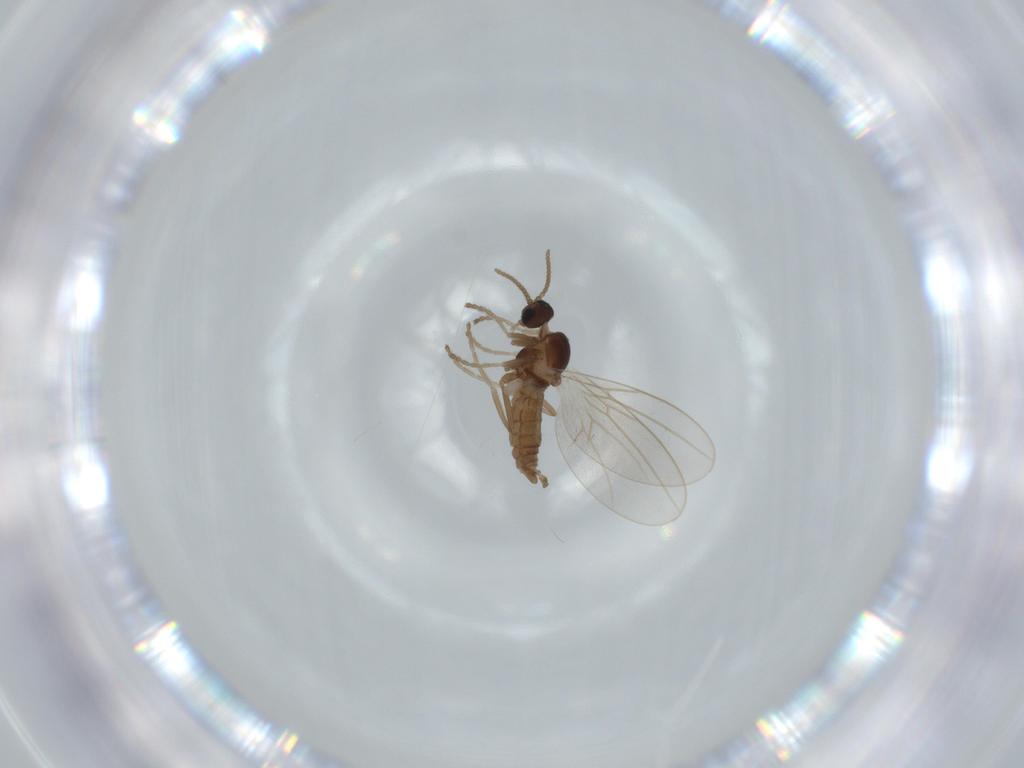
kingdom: Animalia
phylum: Arthropoda
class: Insecta
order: Diptera
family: Cecidomyiidae
